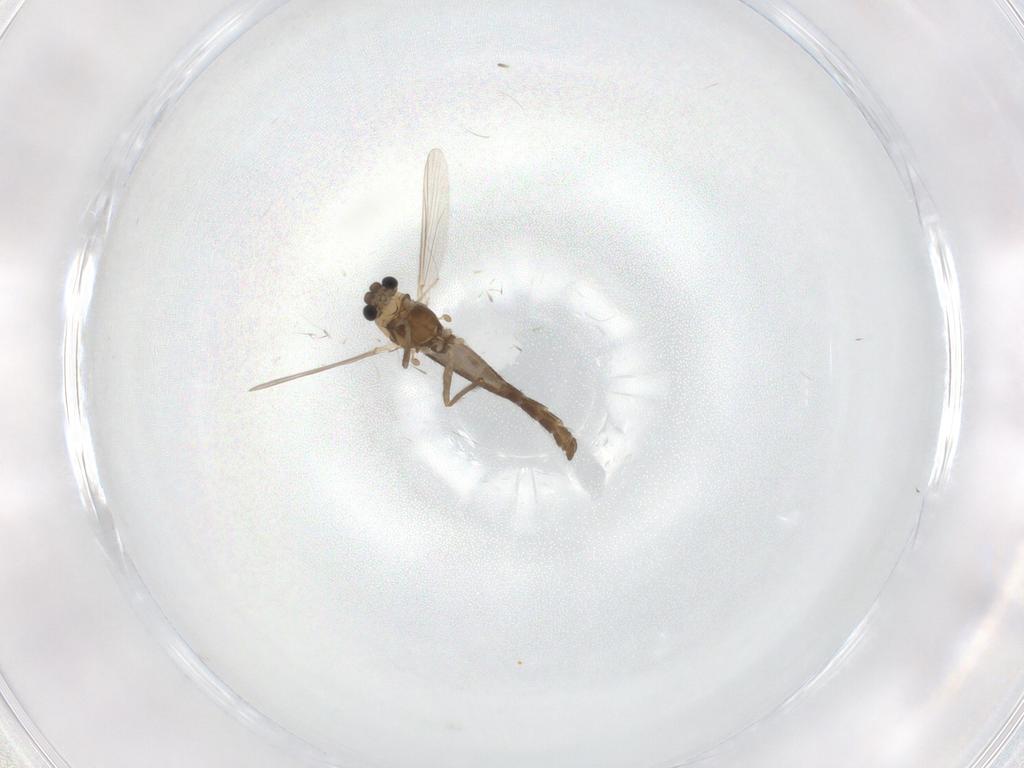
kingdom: Animalia
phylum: Arthropoda
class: Insecta
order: Diptera
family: Chironomidae
